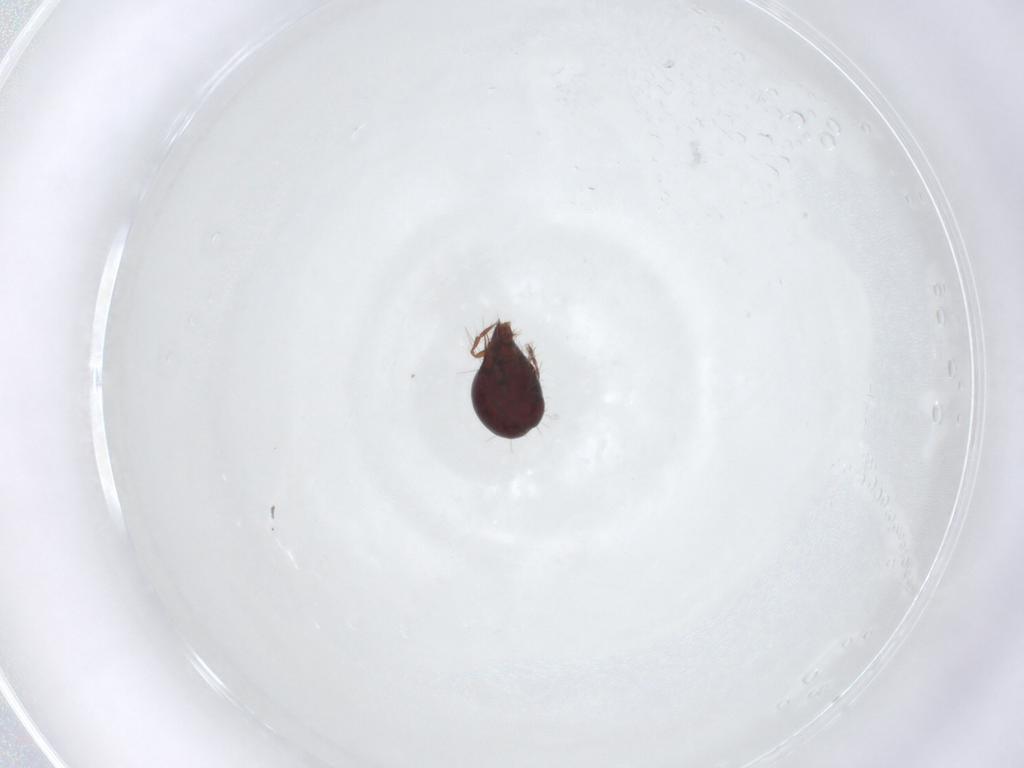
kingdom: Animalia
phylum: Arthropoda
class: Arachnida
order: Sarcoptiformes
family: Ceratoppiidae
